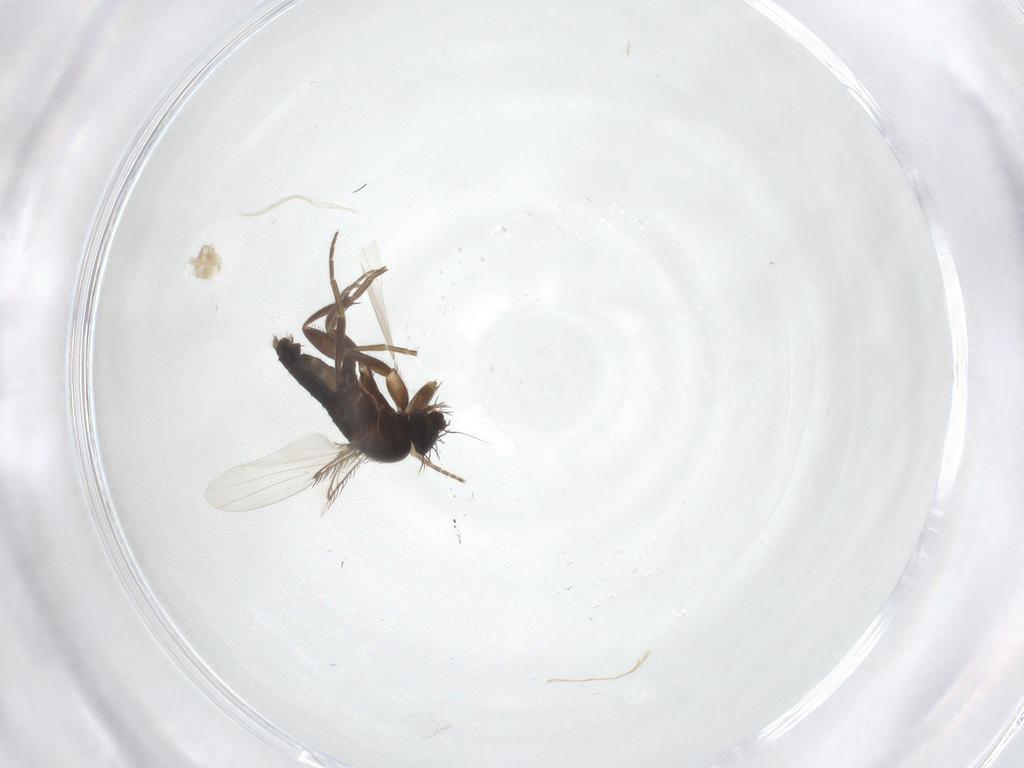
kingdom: Animalia
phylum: Arthropoda
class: Insecta
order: Diptera
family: Phoridae
